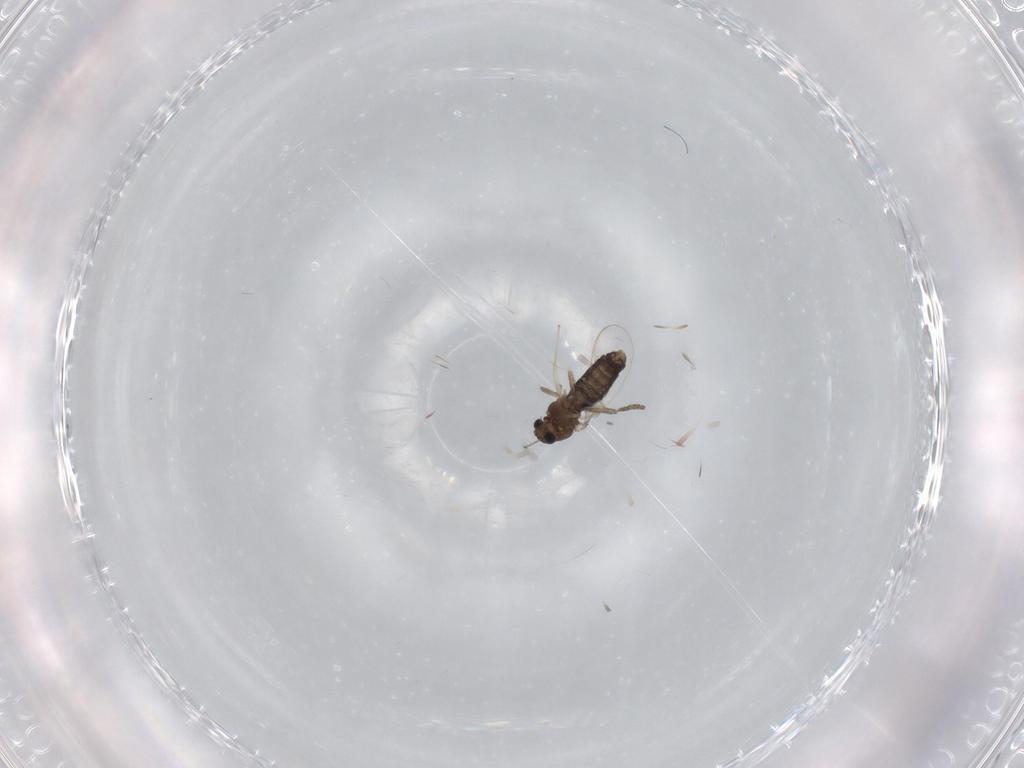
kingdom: Animalia
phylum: Arthropoda
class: Insecta
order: Diptera
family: Chironomidae
